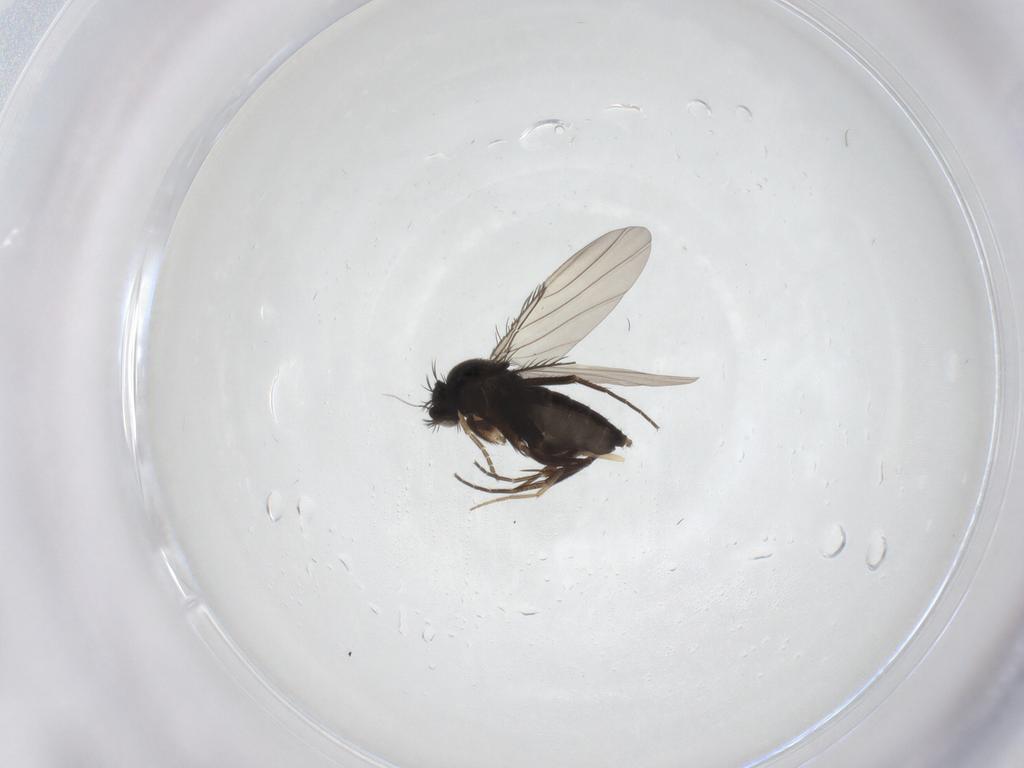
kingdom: Animalia
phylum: Arthropoda
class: Insecta
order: Diptera
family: Phoridae
